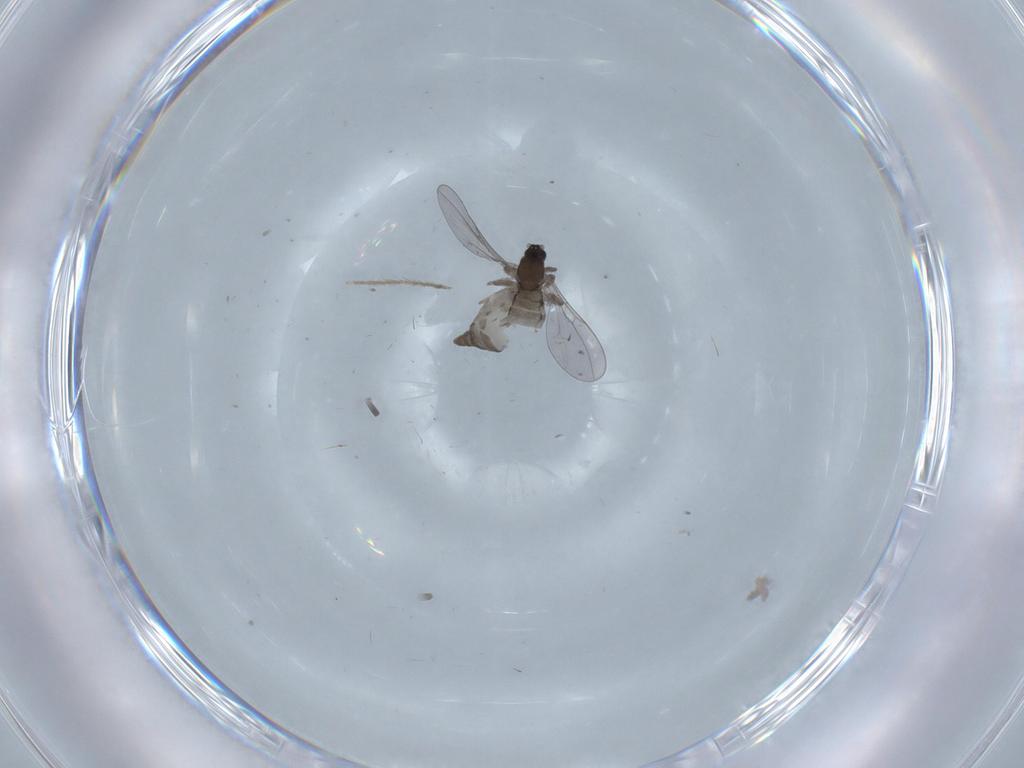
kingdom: Animalia
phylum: Arthropoda
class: Insecta
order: Diptera
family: Cecidomyiidae
